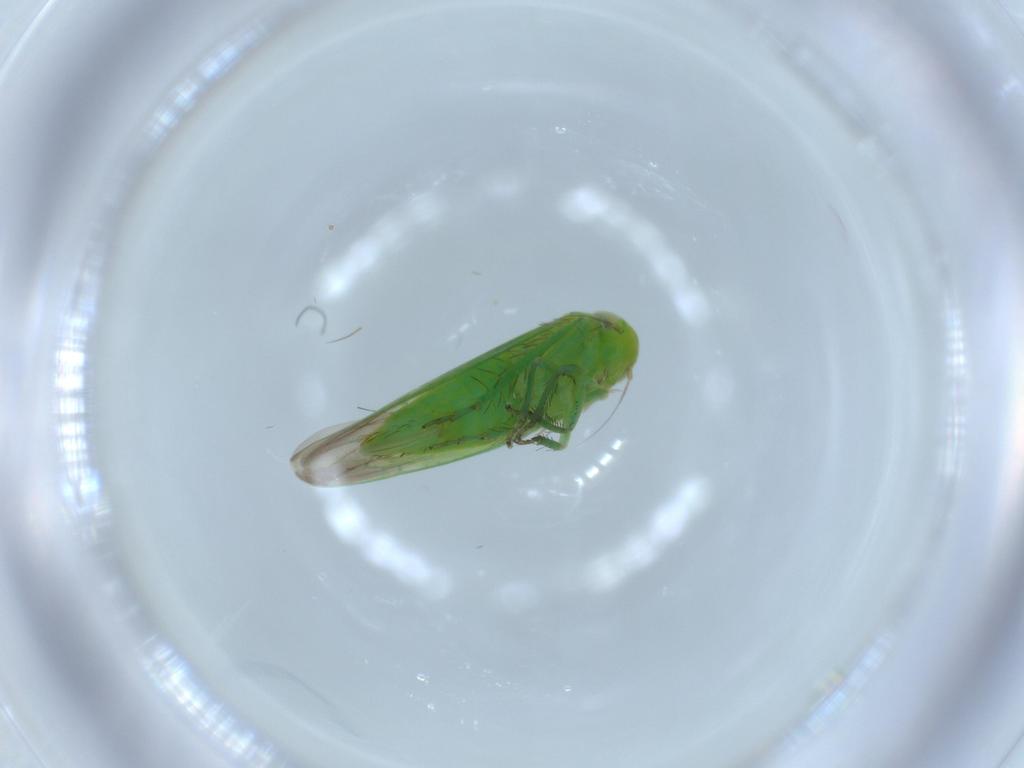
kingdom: Animalia
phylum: Arthropoda
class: Insecta
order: Hemiptera
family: Cicadellidae
